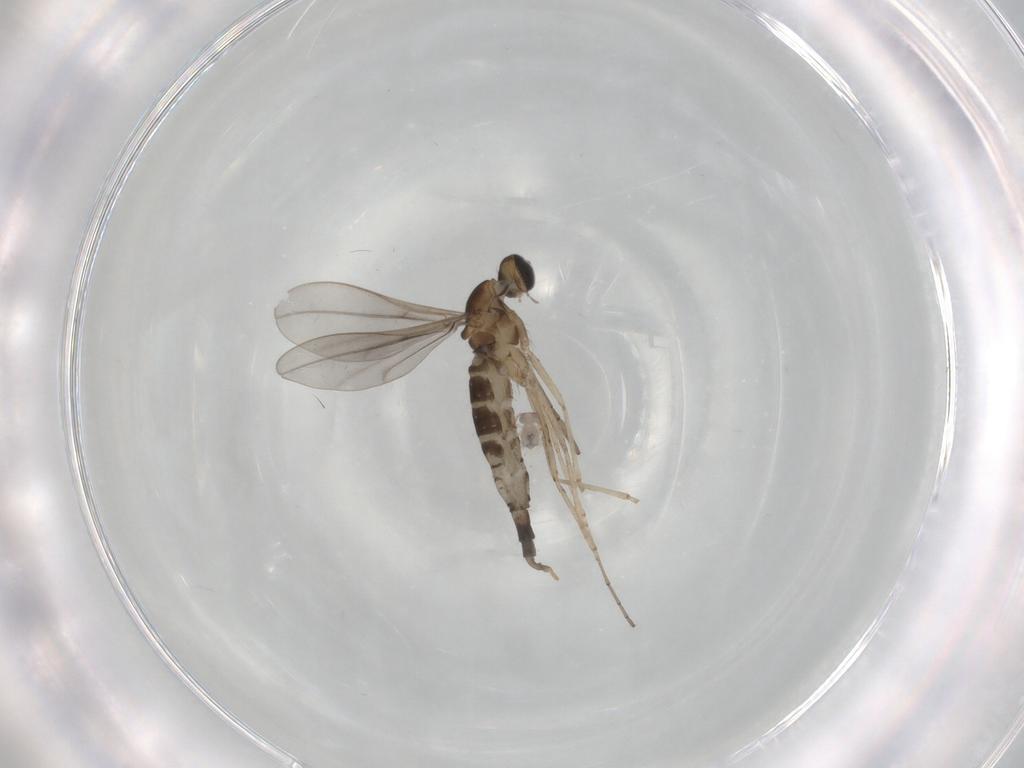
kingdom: Animalia
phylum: Arthropoda
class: Insecta
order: Diptera
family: Cecidomyiidae
